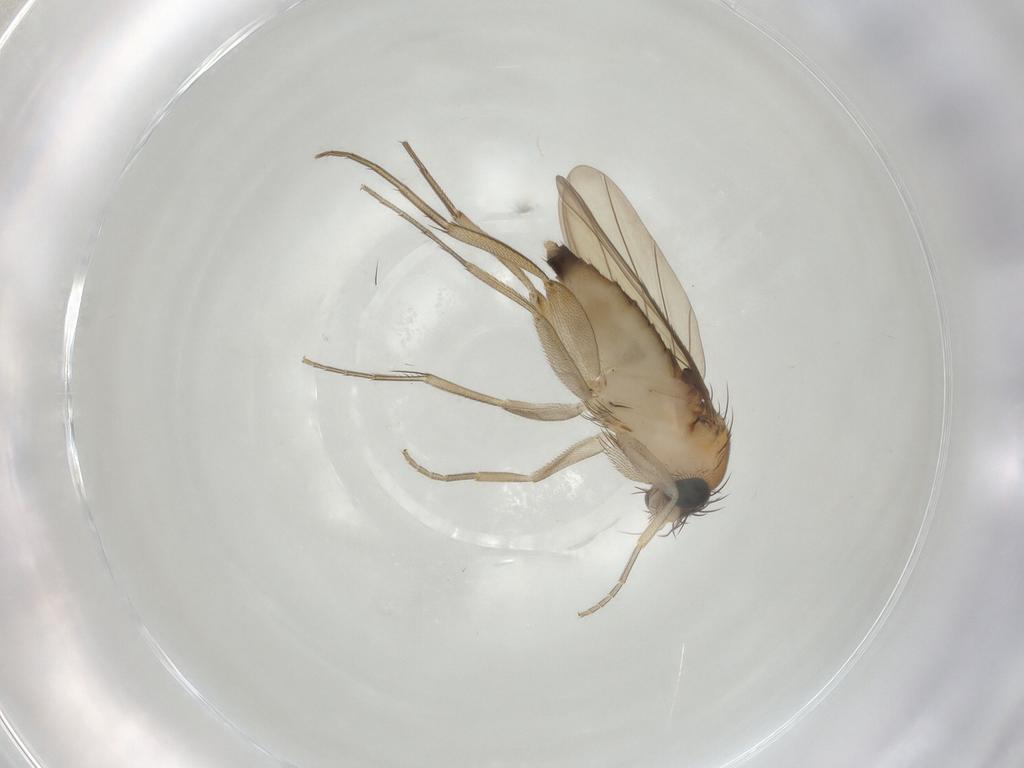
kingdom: Animalia
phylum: Arthropoda
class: Insecta
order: Diptera
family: Phoridae
